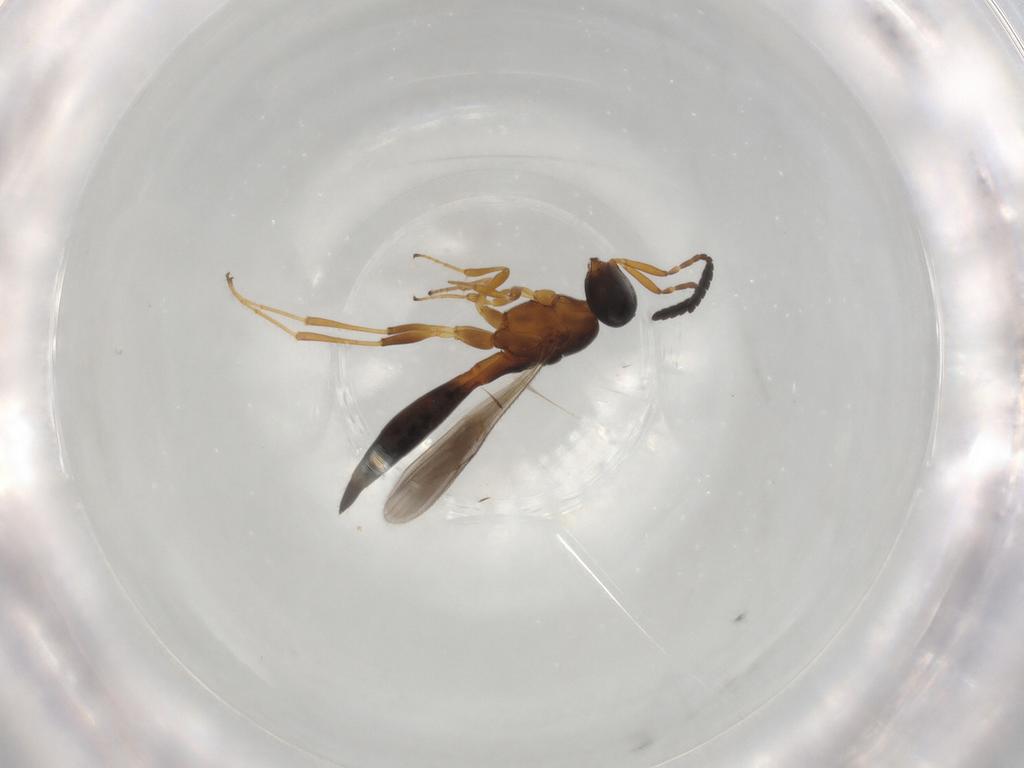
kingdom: Animalia
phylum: Arthropoda
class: Insecta
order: Hymenoptera
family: Scelionidae
